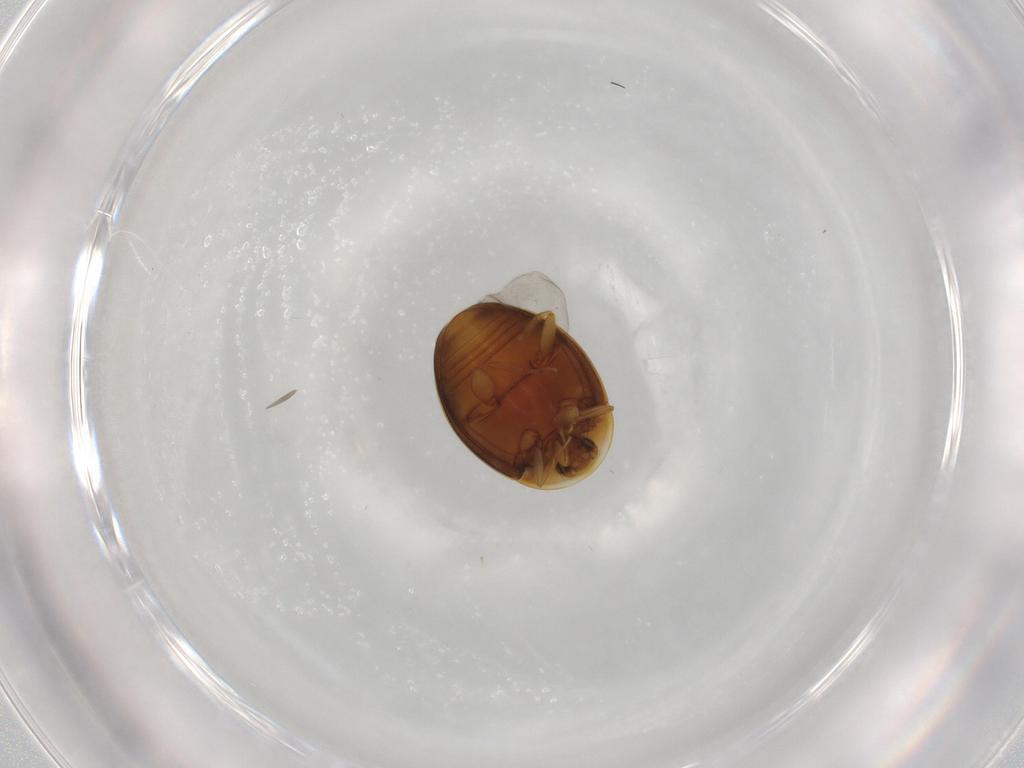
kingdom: Animalia
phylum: Arthropoda
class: Insecta
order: Coleoptera
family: Corylophidae
